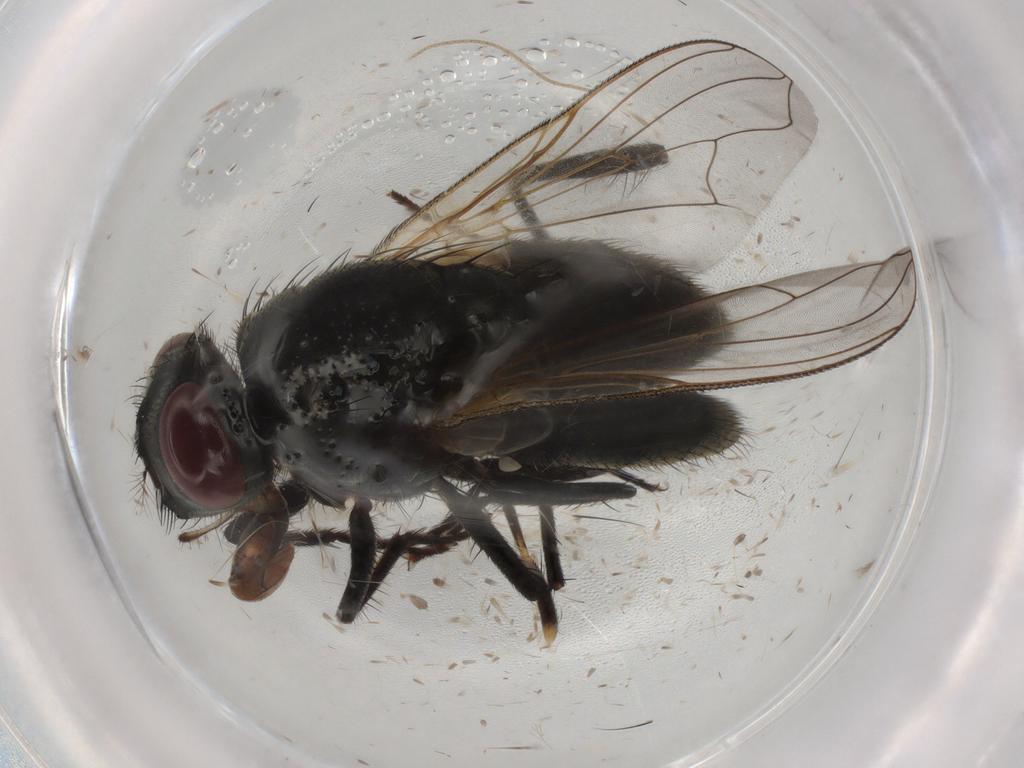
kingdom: Animalia
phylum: Arthropoda
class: Insecta
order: Diptera
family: Muscidae
